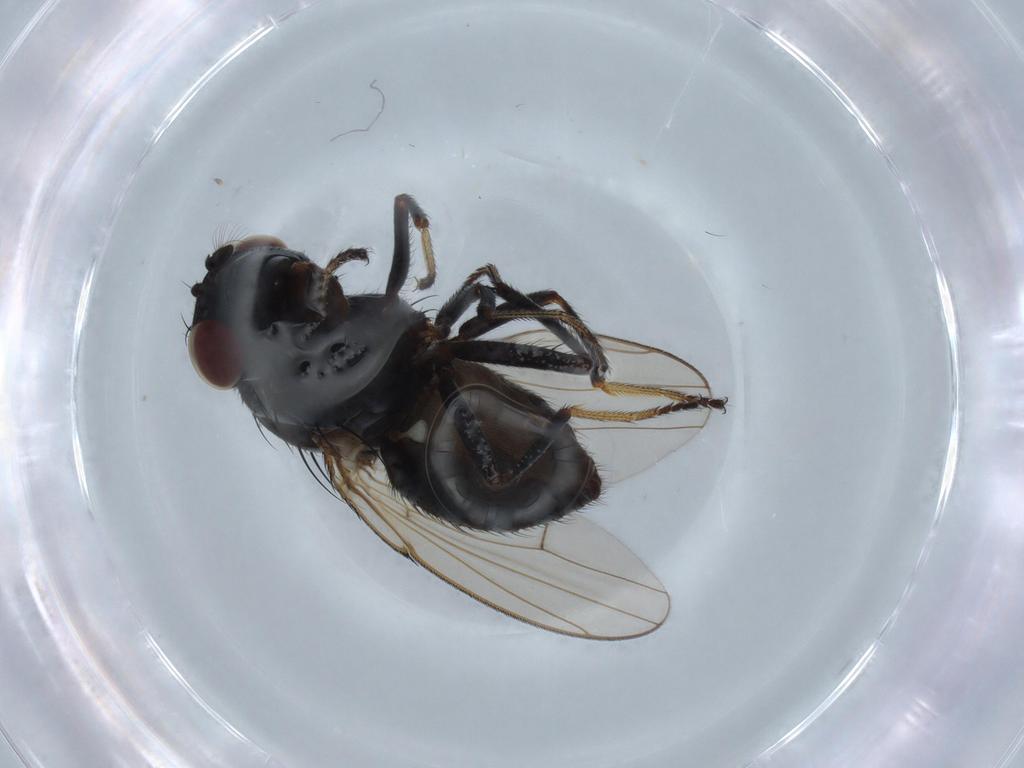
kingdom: Animalia
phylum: Arthropoda
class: Insecta
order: Diptera
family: Ephydridae
